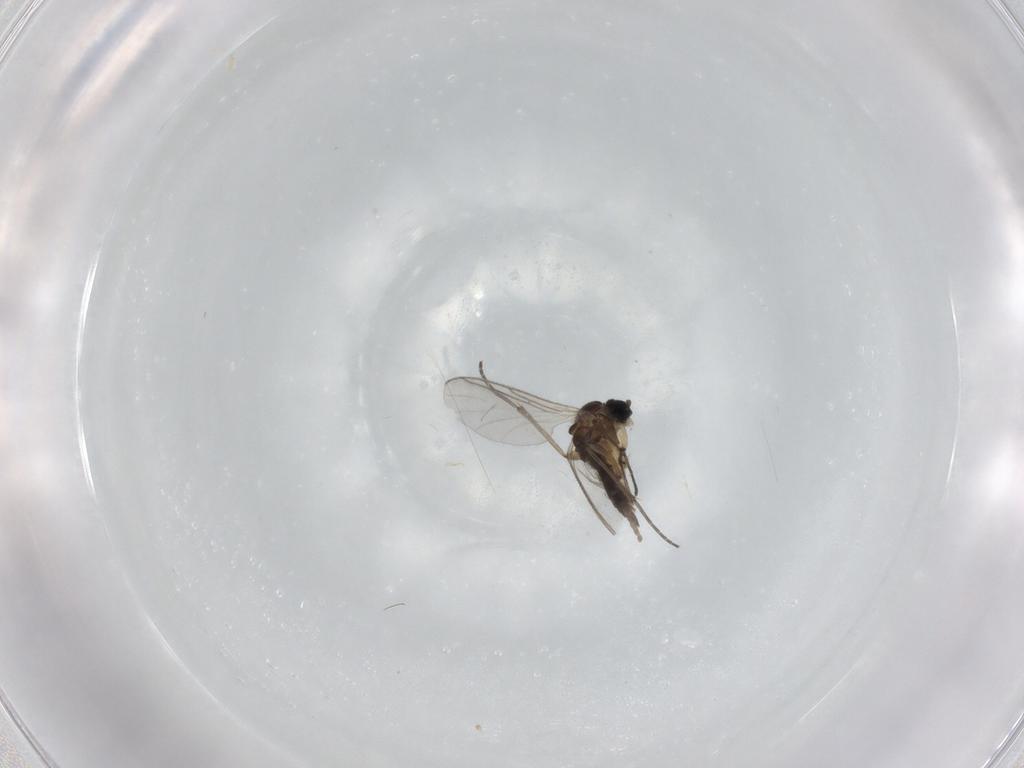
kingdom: Animalia
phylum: Arthropoda
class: Insecta
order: Diptera
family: Sciaridae
